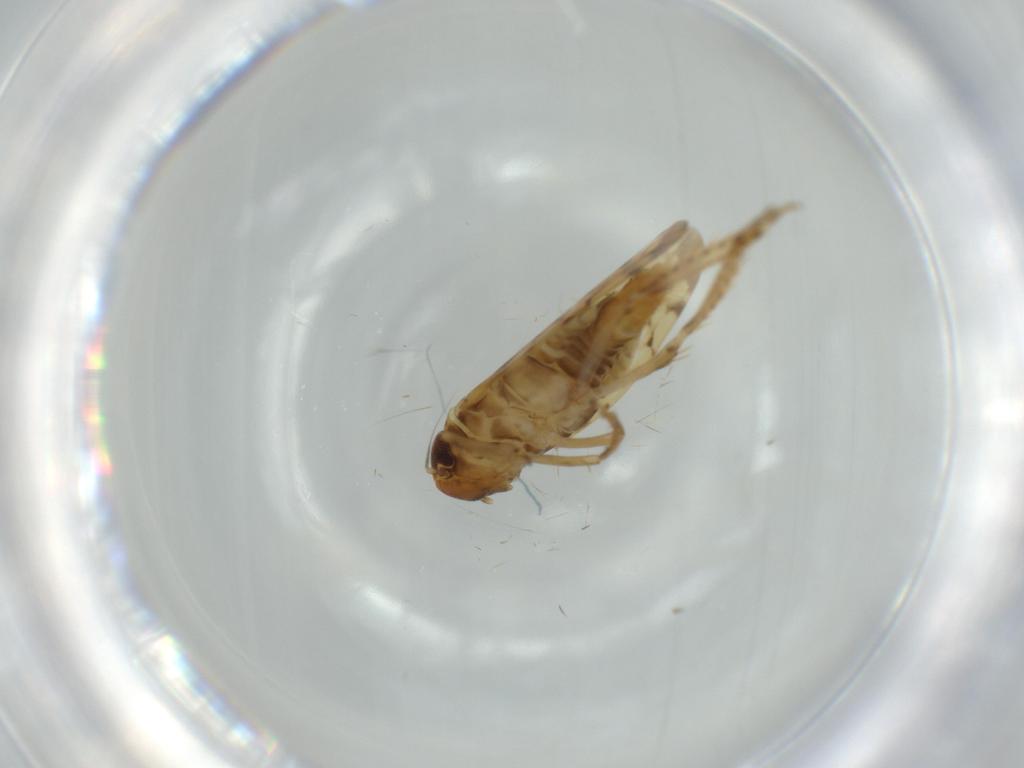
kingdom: Animalia
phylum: Arthropoda
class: Insecta
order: Hemiptera
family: Cicadellidae
